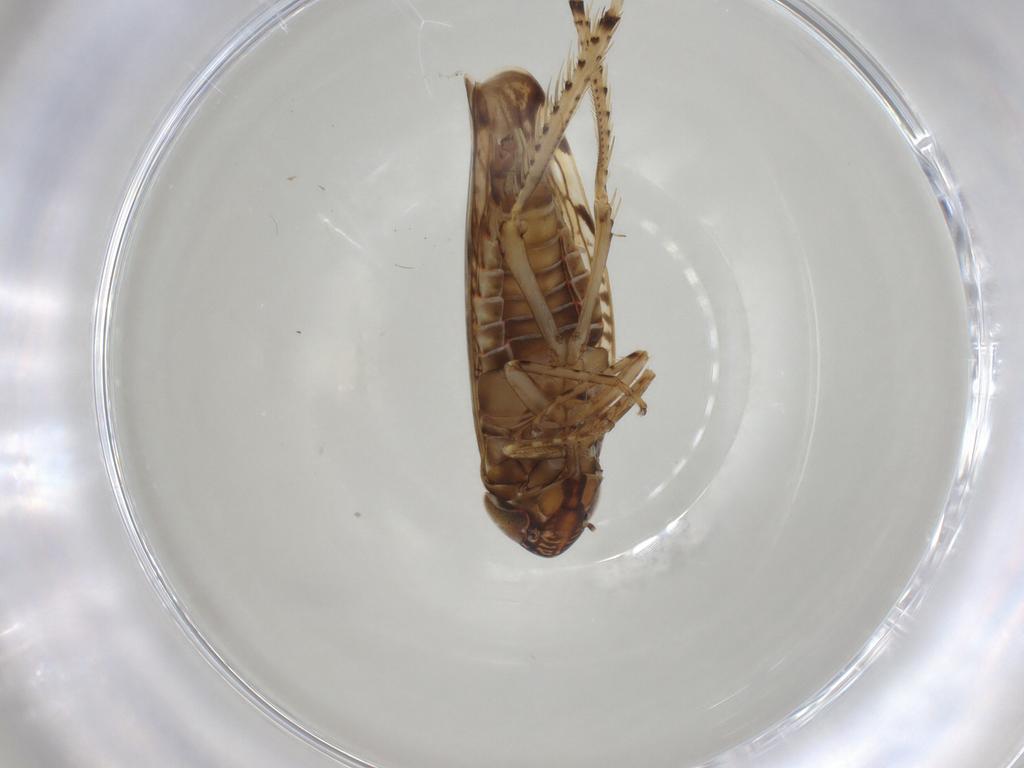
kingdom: Animalia
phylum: Arthropoda
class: Insecta
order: Hemiptera
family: Cicadellidae
